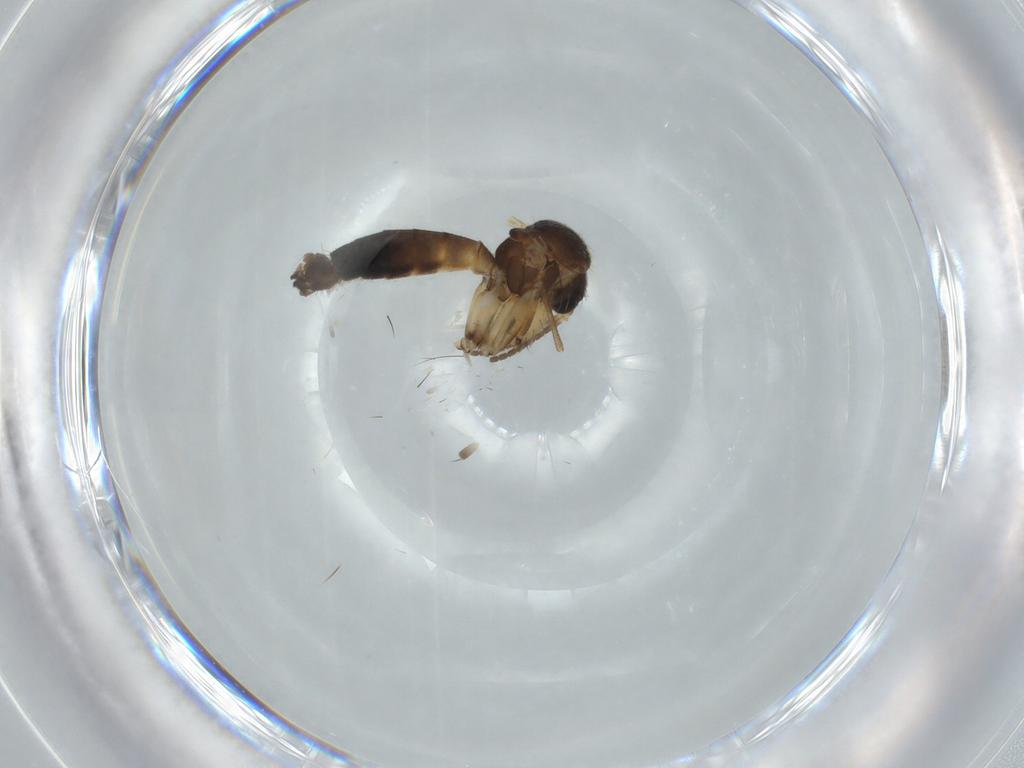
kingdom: Animalia
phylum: Arthropoda
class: Insecta
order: Diptera
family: Mycetophilidae
